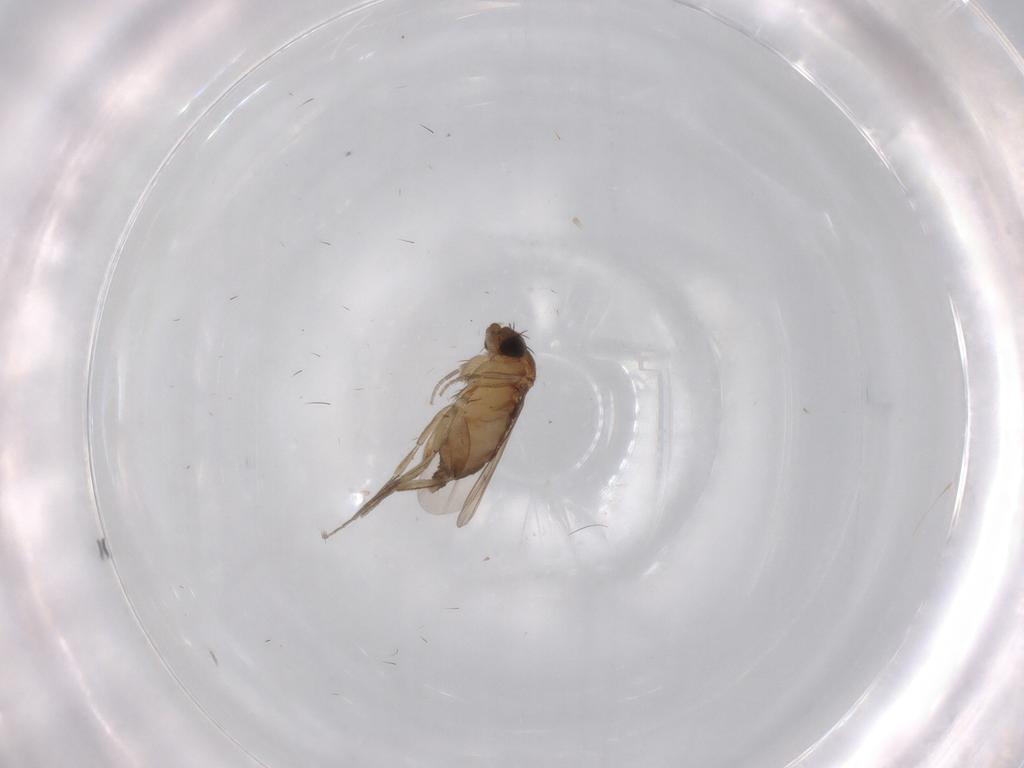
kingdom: Animalia
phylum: Arthropoda
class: Insecta
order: Diptera
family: Phoridae
